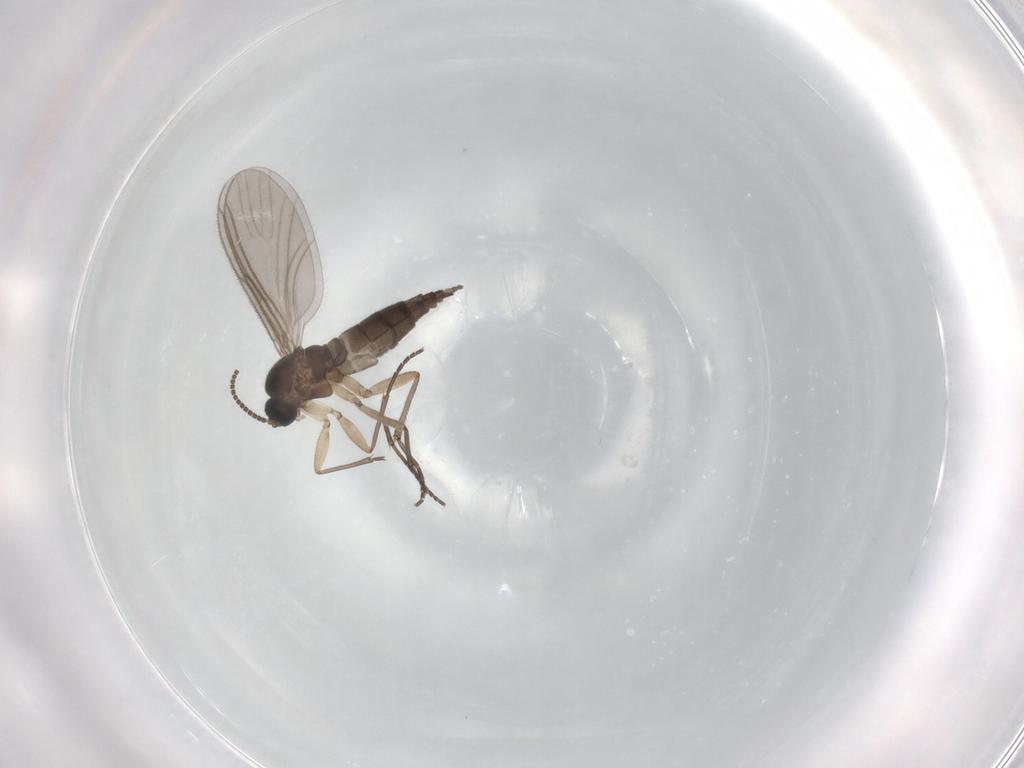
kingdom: Animalia
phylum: Arthropoda
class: Insecta
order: Diptera
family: Sciaridae
